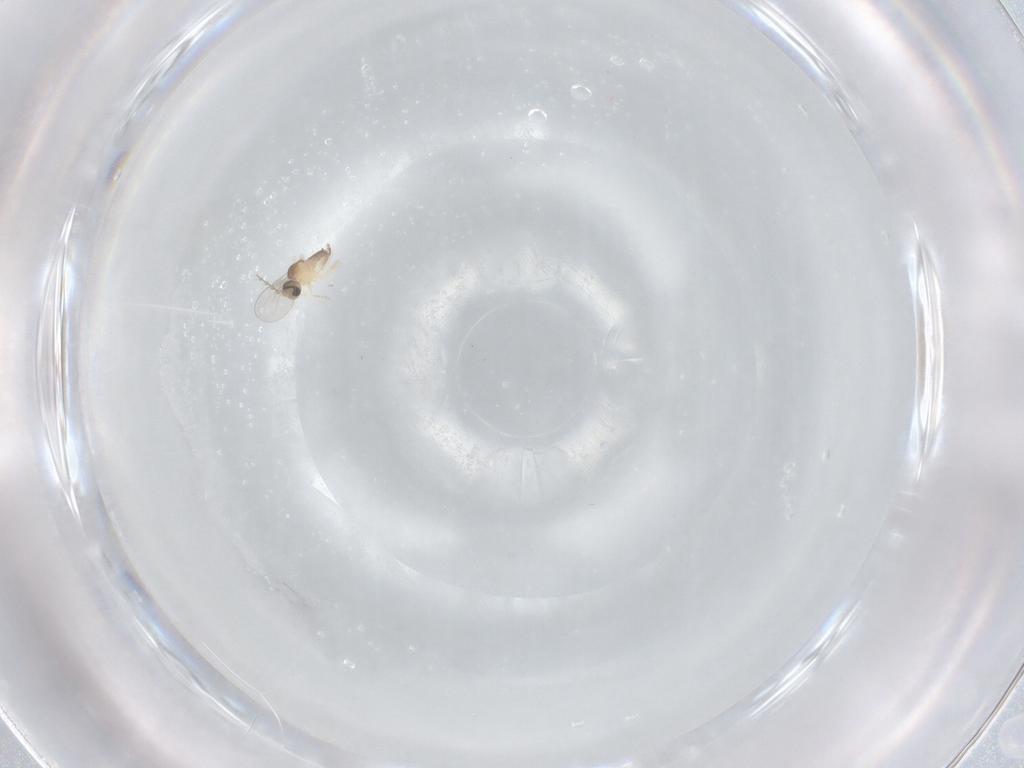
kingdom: Animalia
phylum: Arthropoda
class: Insecta
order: Diptera
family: Cecidomyiidae
